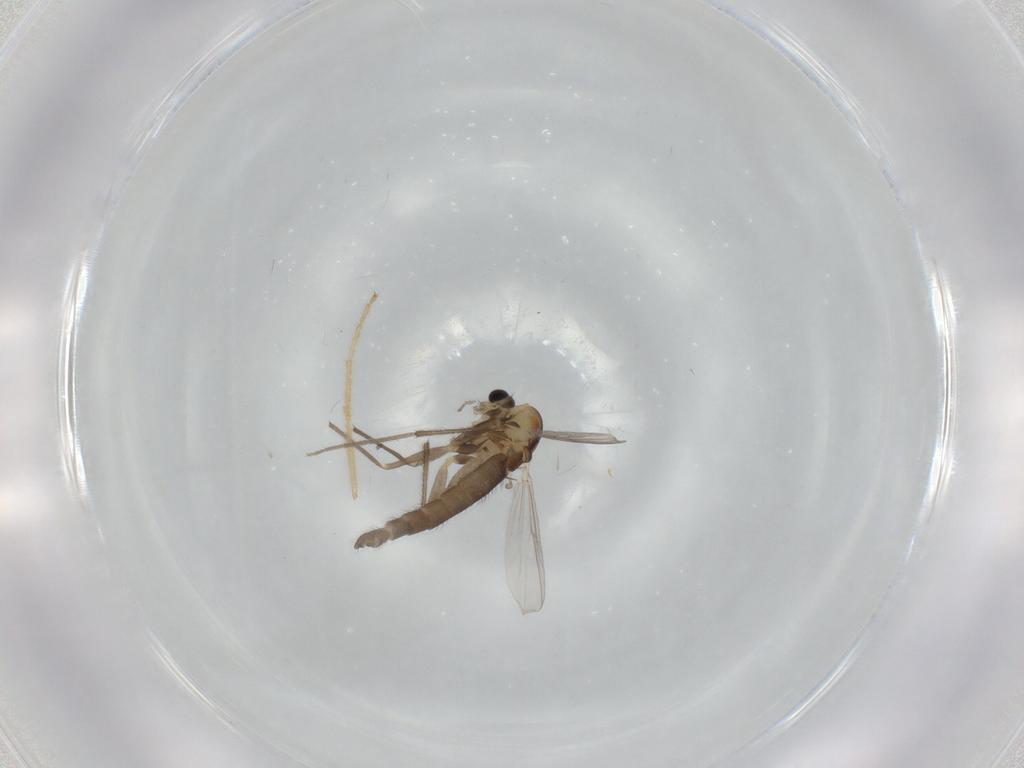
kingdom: Animalia
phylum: Arthropoda
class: Insecta
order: Diptera
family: Chironomidae
